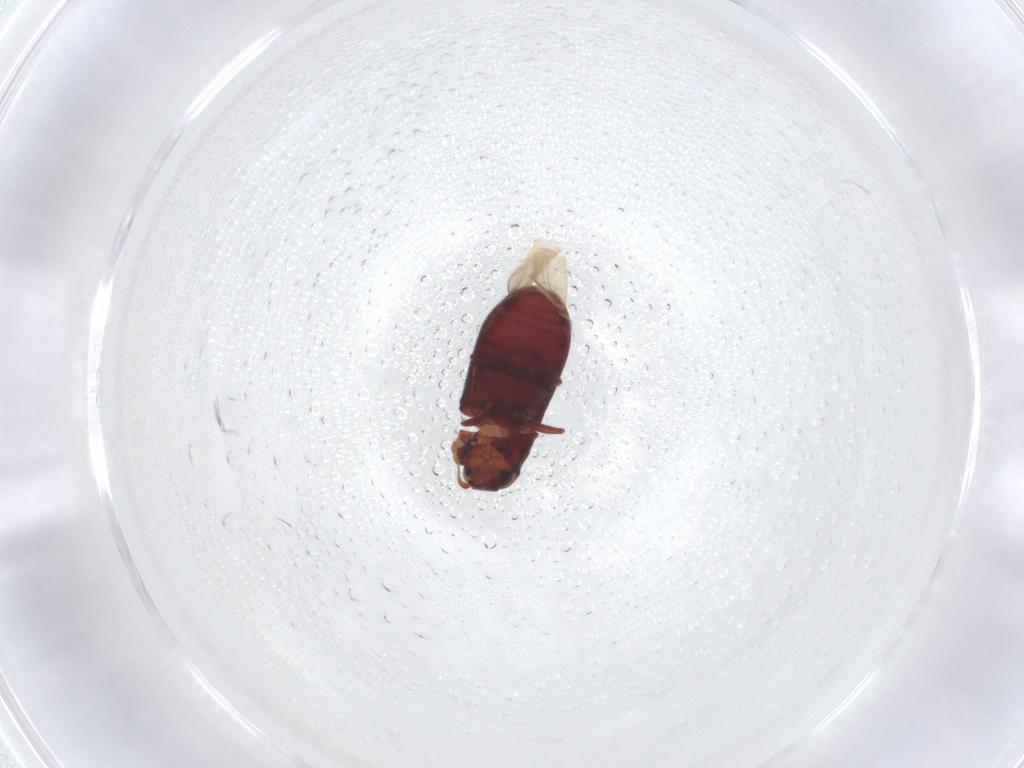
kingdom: Animalia
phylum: Arthropoda
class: Insecta
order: Coleoptera
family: Ptinidae
